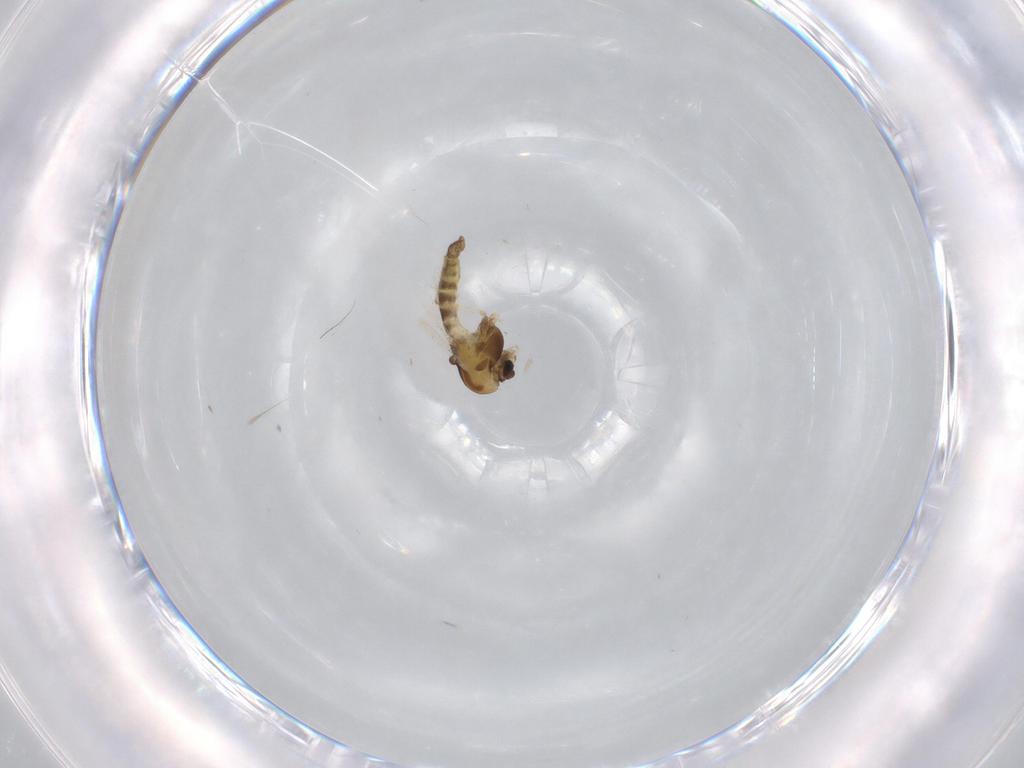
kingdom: Animalia
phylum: Arthropoda
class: Insecta
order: Diptera
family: Chironomidae
